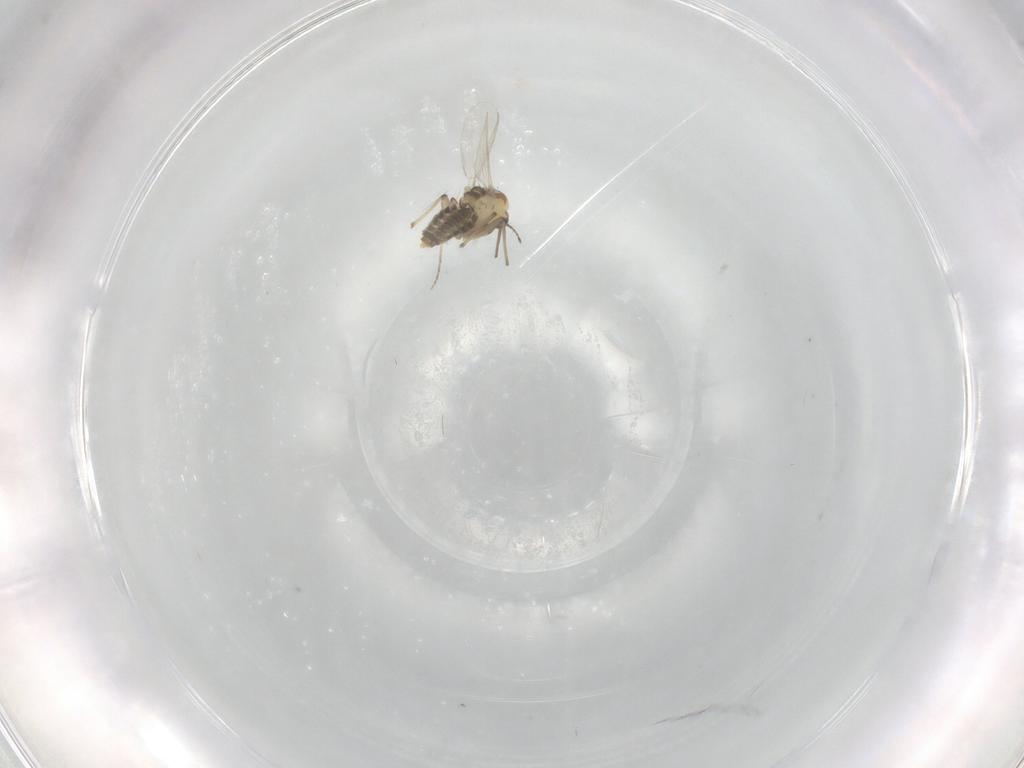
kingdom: Animalia
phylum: Arthropoda
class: Insecta
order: Diptera
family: Chironomidae
